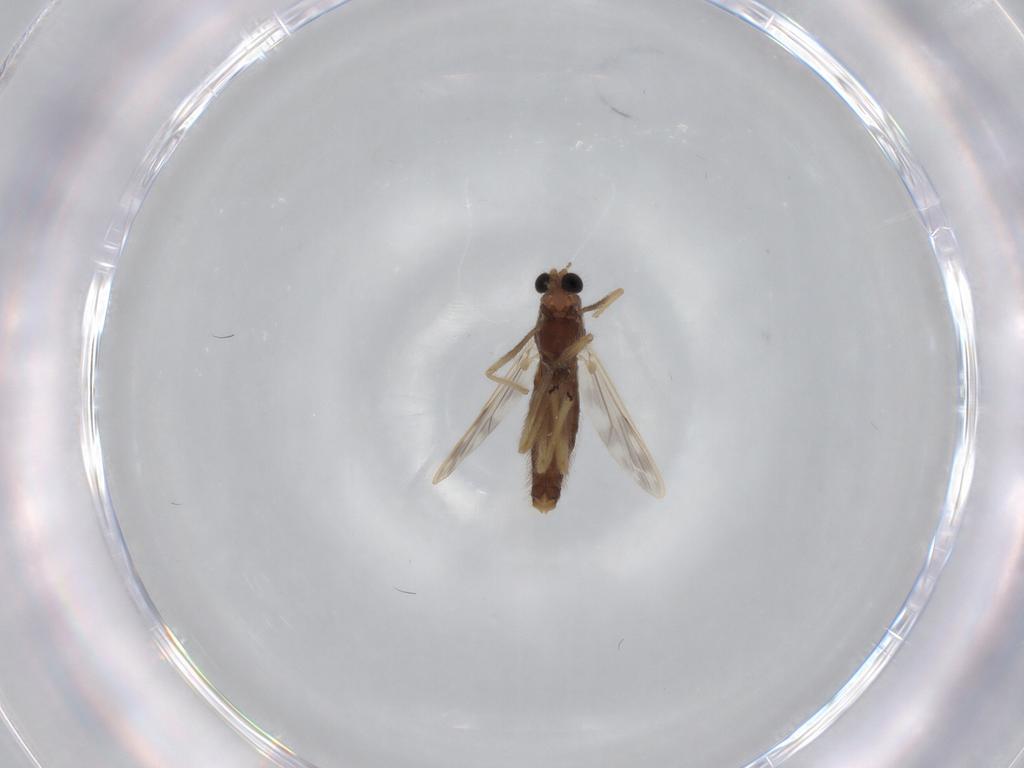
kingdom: Animalia
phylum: Arthropoda
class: Insecta
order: Diptera
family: Chironomidae
